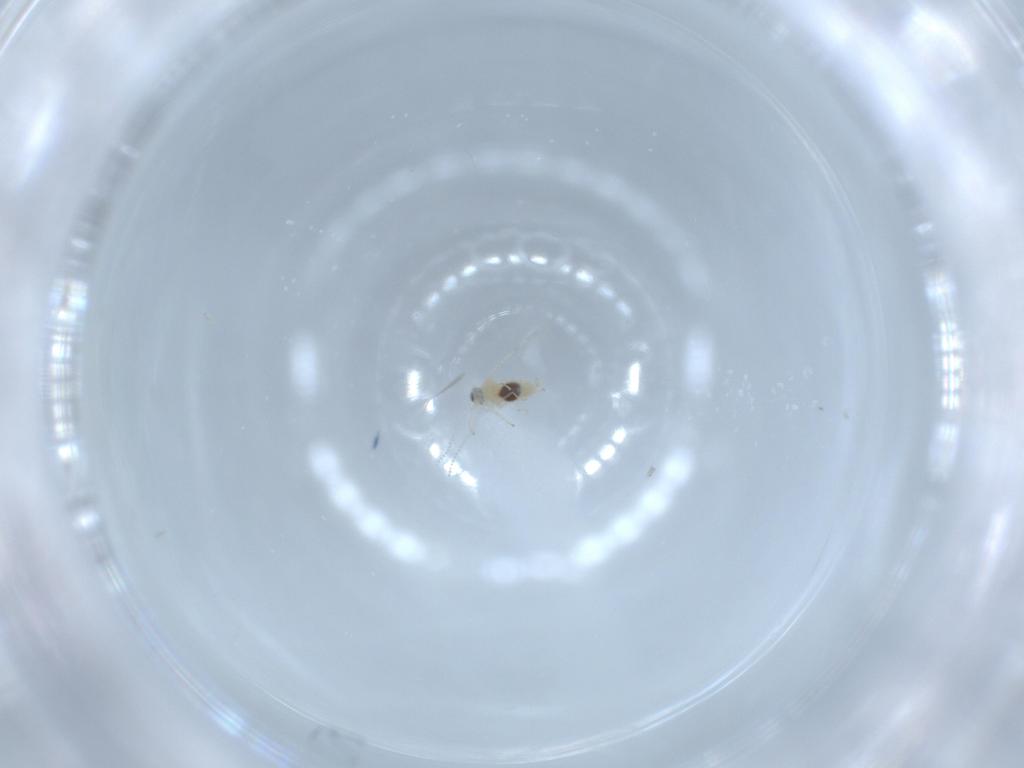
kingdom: Animalia
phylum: Arthropoda
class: Insecta
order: Diptera
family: Cecidomyiidae
